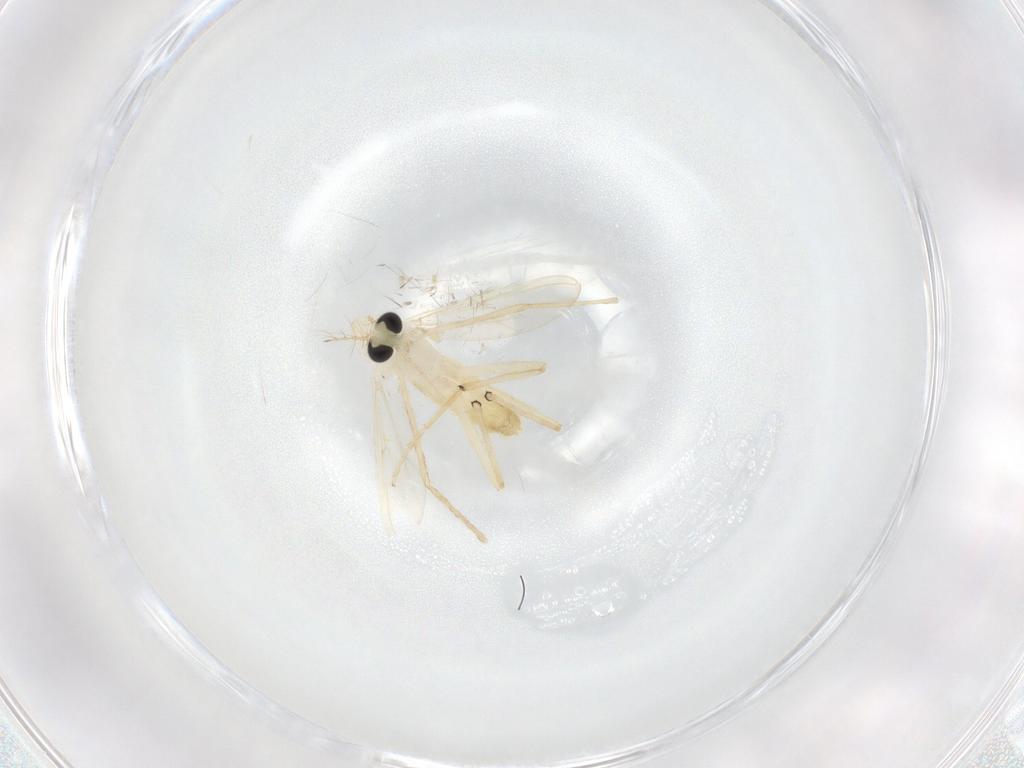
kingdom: Animalia
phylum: Arthropoda
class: Insecta
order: Diptera
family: Chironomidae
